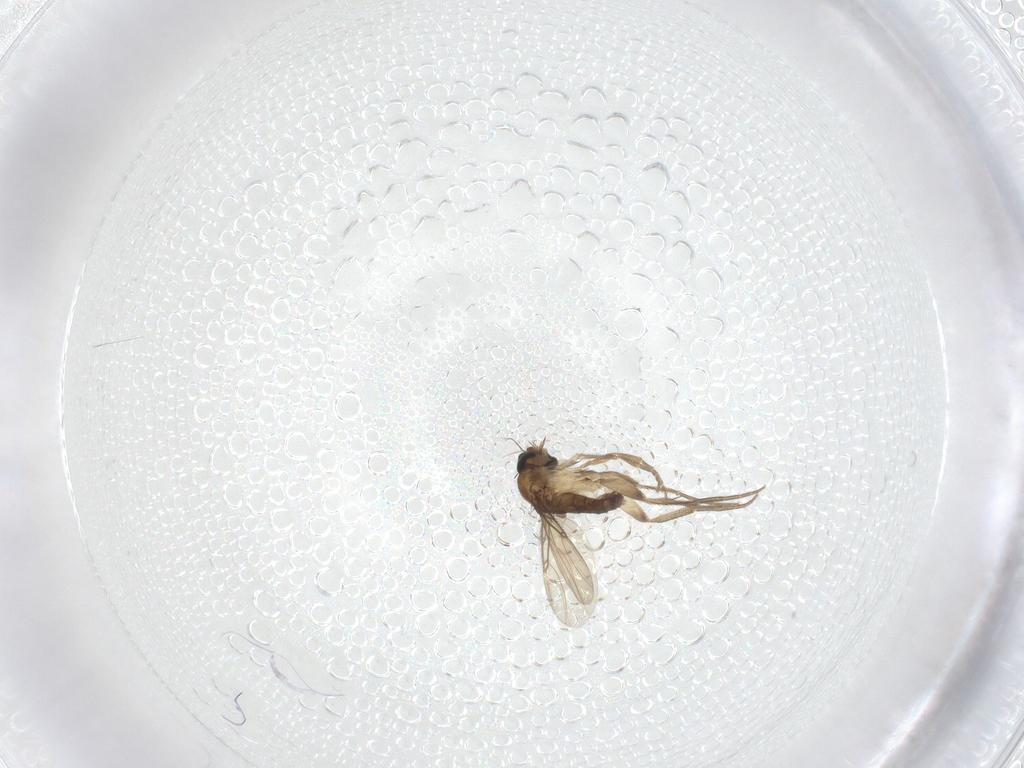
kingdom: Animalia
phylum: Arthropoda
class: Insecta
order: Diptera
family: Phoridae
